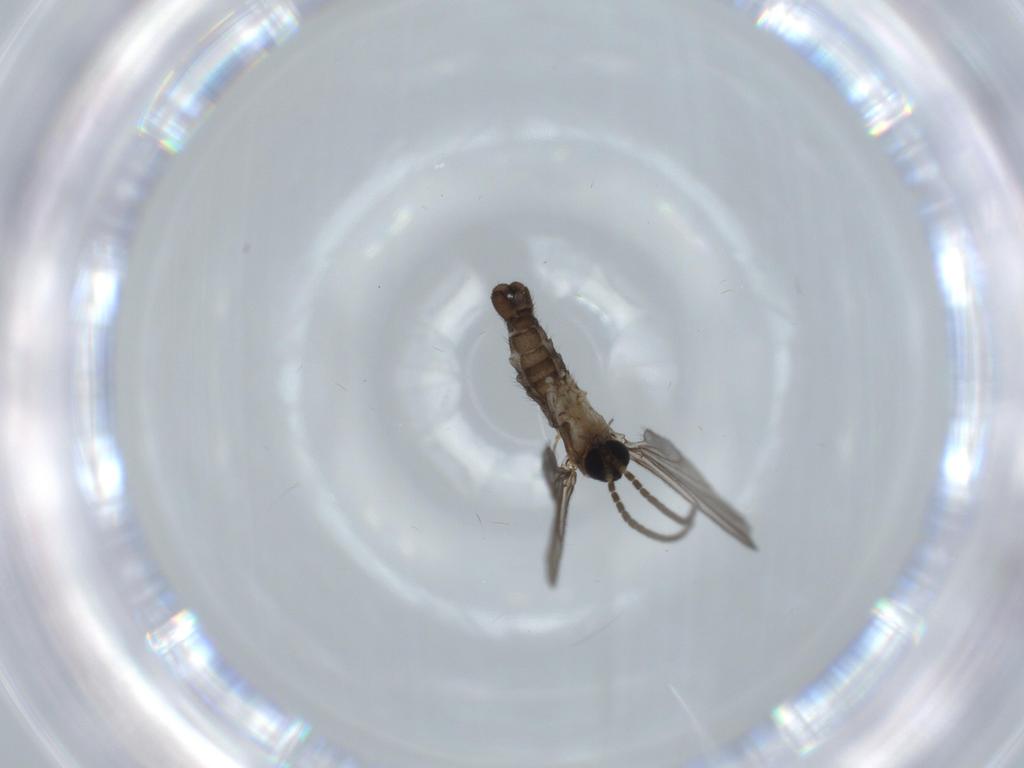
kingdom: Animalia
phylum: Arthropoda
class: Insecta
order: Diptera
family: Sciaridae
